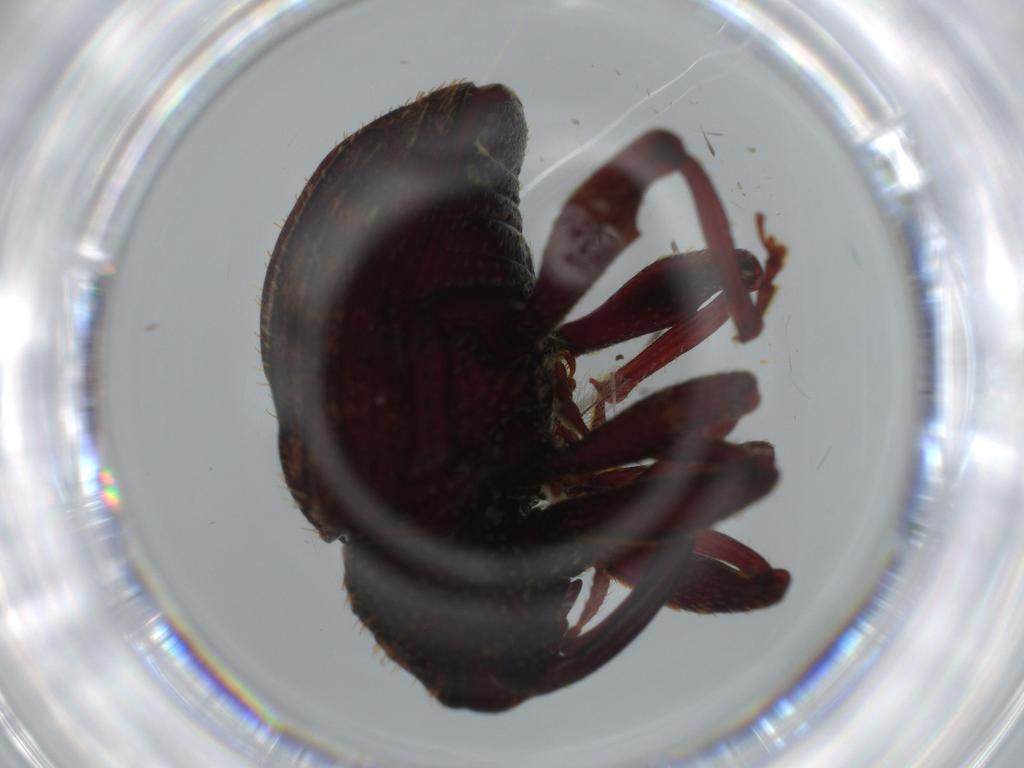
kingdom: Animalia
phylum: Arthropoda
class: Insecta
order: Coleoptera
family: Curculionidae
